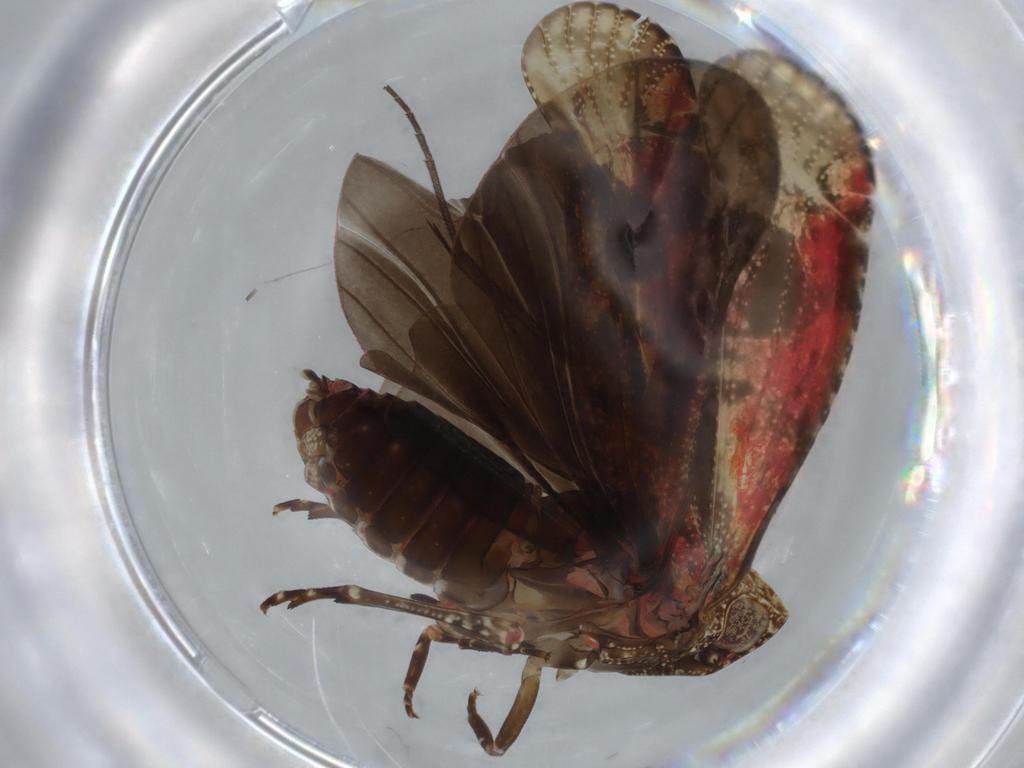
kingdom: Animalia
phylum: Arthropoda
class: Insecta
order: Hemiptera
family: Achilidae
